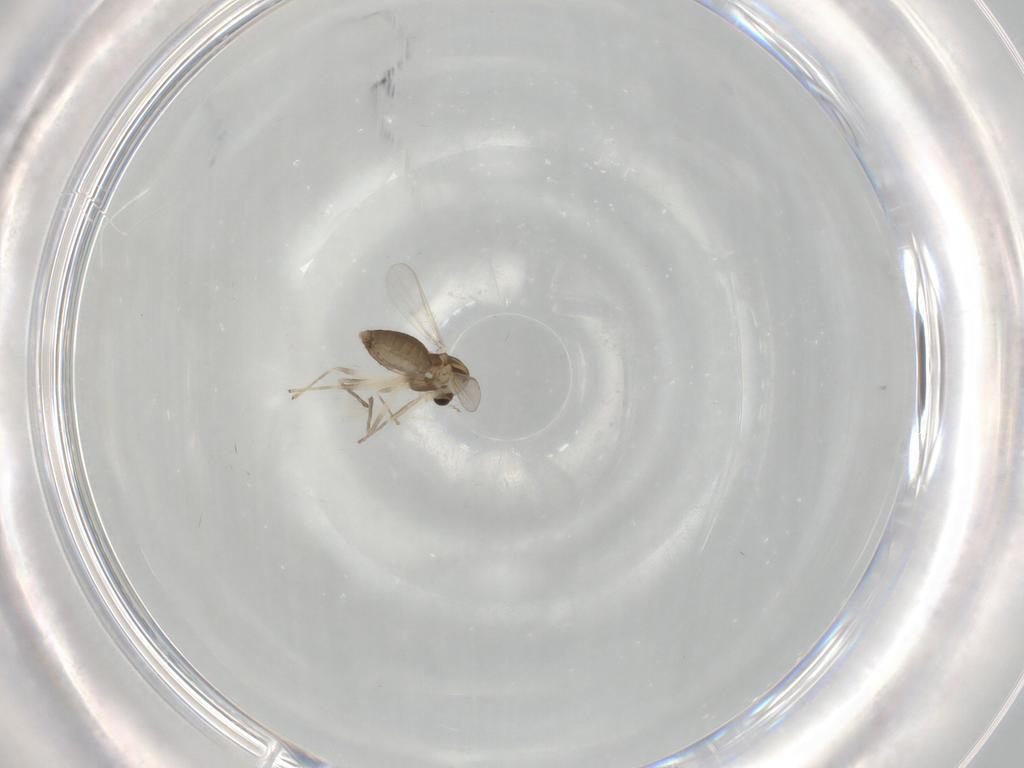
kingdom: Animalia
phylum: Arthropoda
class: Insecta
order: Diptera
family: Chironomidae
